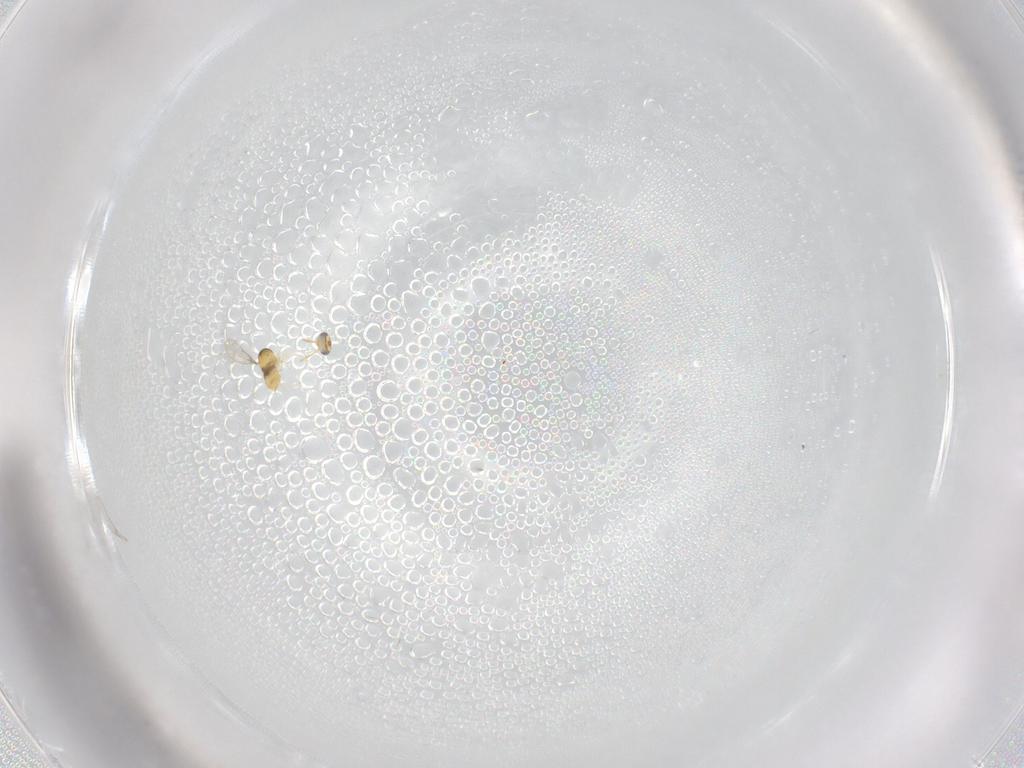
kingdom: Animalia
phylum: Arthropoda
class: Insecta
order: Hymenoptera
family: Aphelinidae
